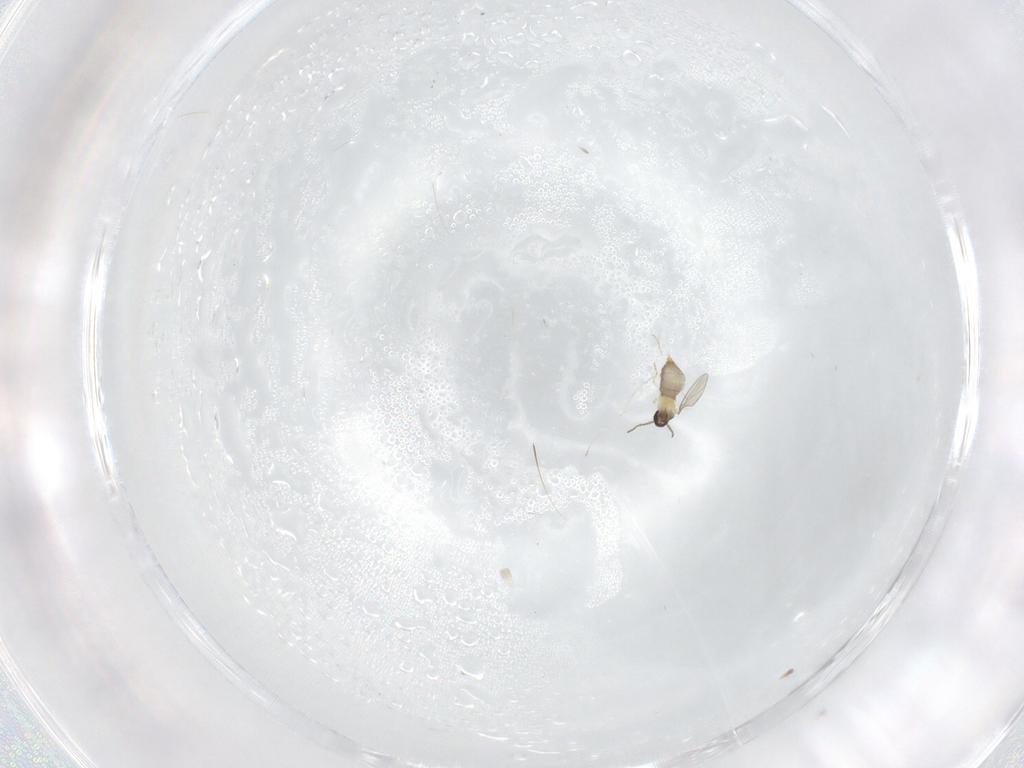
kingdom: Animalia
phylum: Arthropoda
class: Insecta
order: Diptera
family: Cecidomyiidae
